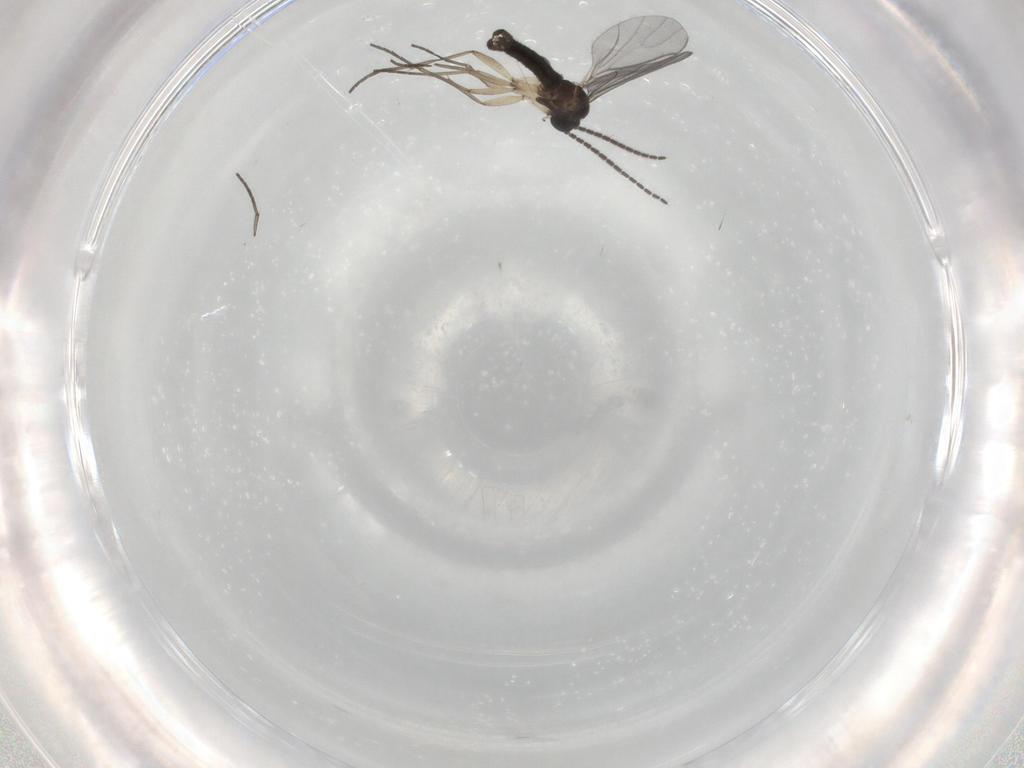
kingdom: Animalia
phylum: Arthropoda
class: Insecta
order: Diptera
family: Sciaridae
